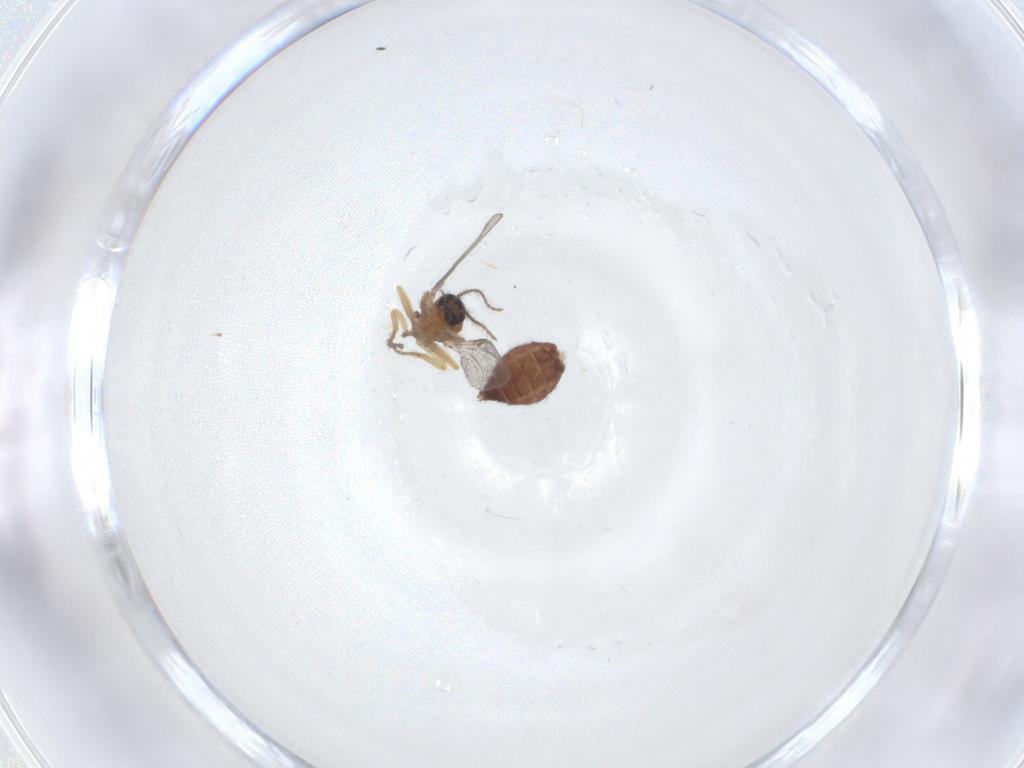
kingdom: Animalia
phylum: Arthropoda
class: Insecta
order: Diptera
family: Ceratopogonidae
